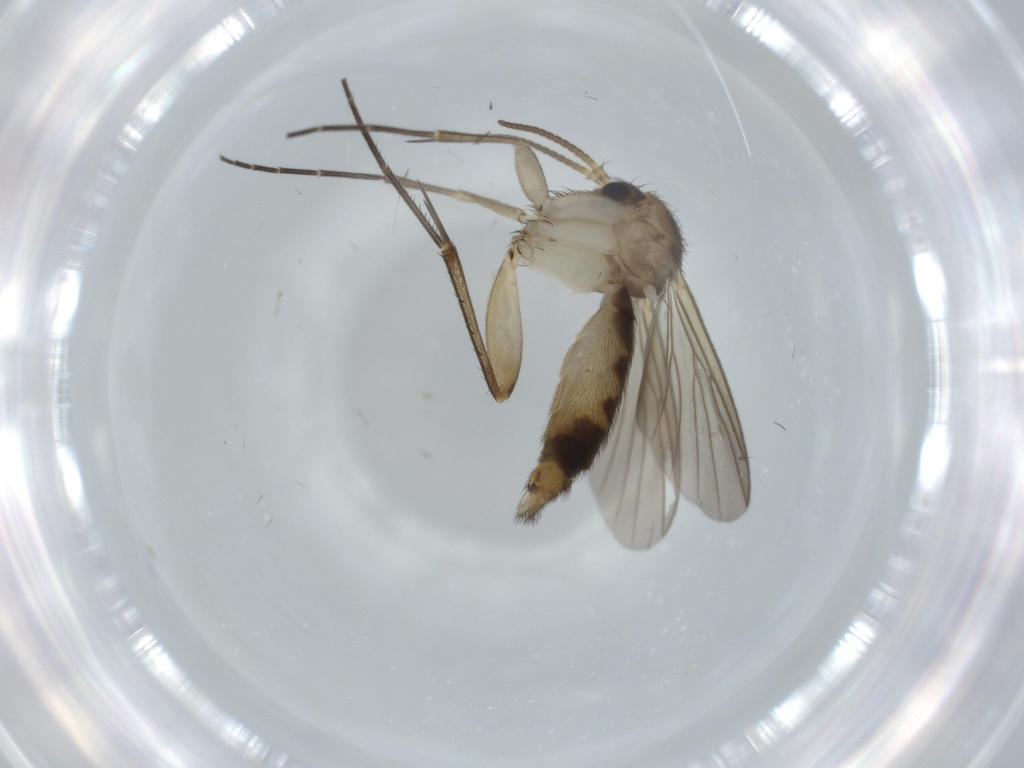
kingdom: Animalia
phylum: Arthropoda
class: Insecta
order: Diptera
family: Mycetophilidae
